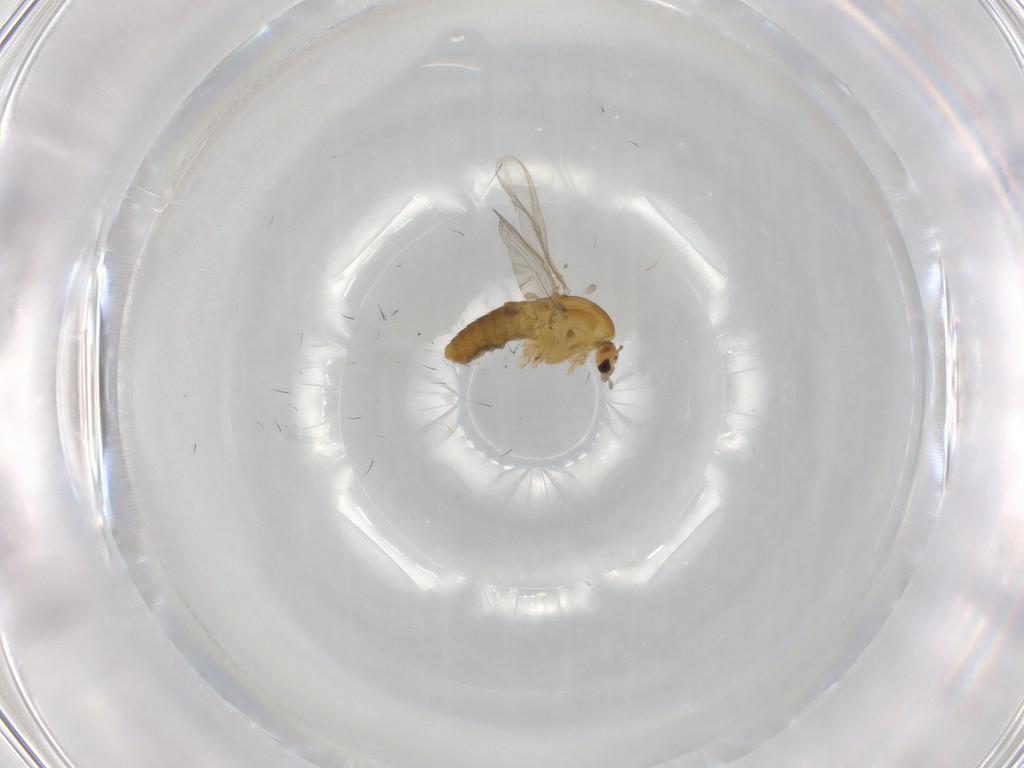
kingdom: Animalia
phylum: Arthropoda
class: Insecta
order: Diptera
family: Chironomidae
